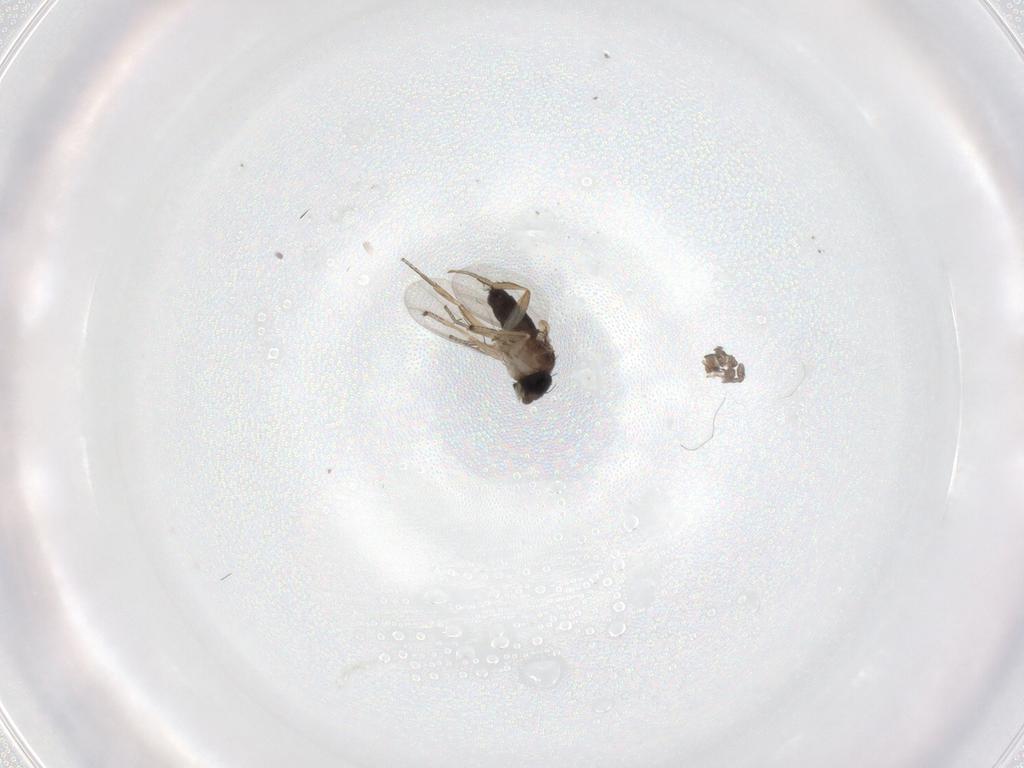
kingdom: Animalia
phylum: Arthropoda
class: Insecta
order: Diptera
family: Phoridae
